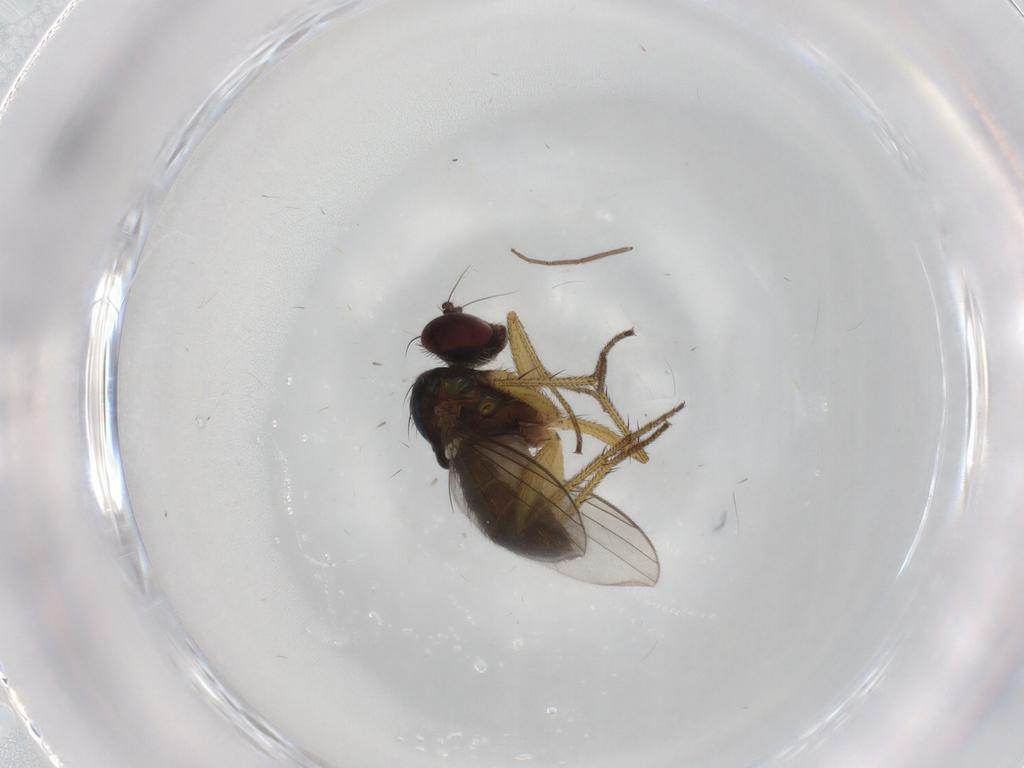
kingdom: Animalia
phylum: Arthropoda
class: Insecta
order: Diptera
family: Chironomidae
